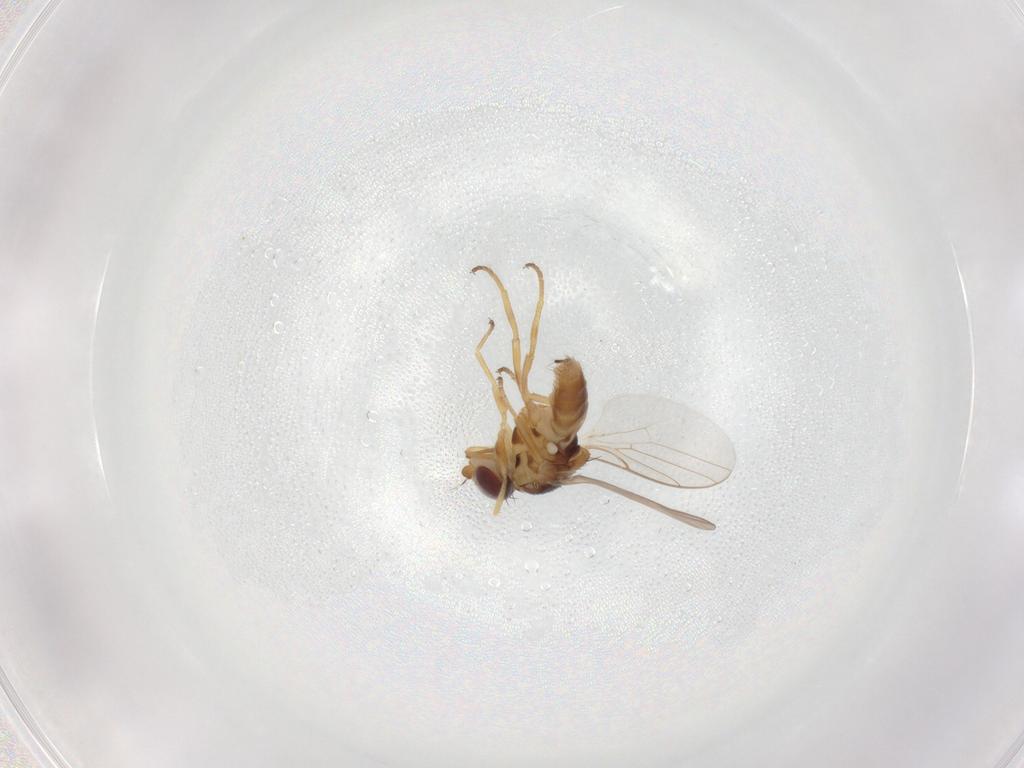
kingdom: Animalia
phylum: Arthropoda
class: Insecta
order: Diptera
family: Chloropidae
